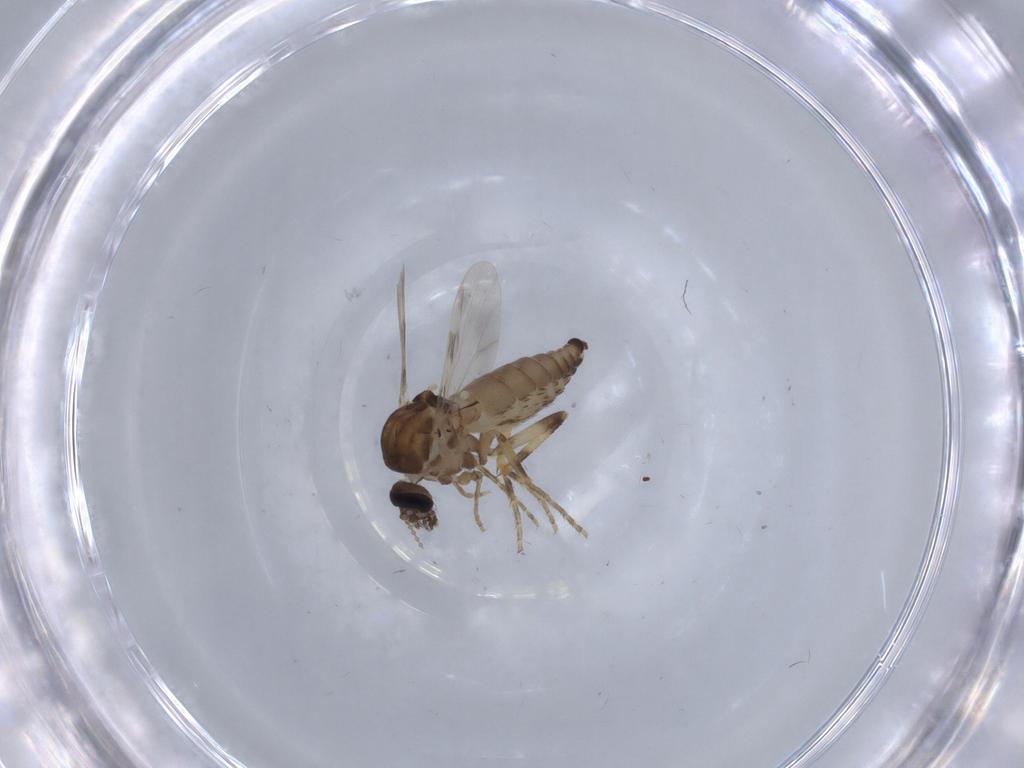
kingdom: Animalia
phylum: Arthropoda
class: Insecta
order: Diptera
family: Ceratopogonidae
